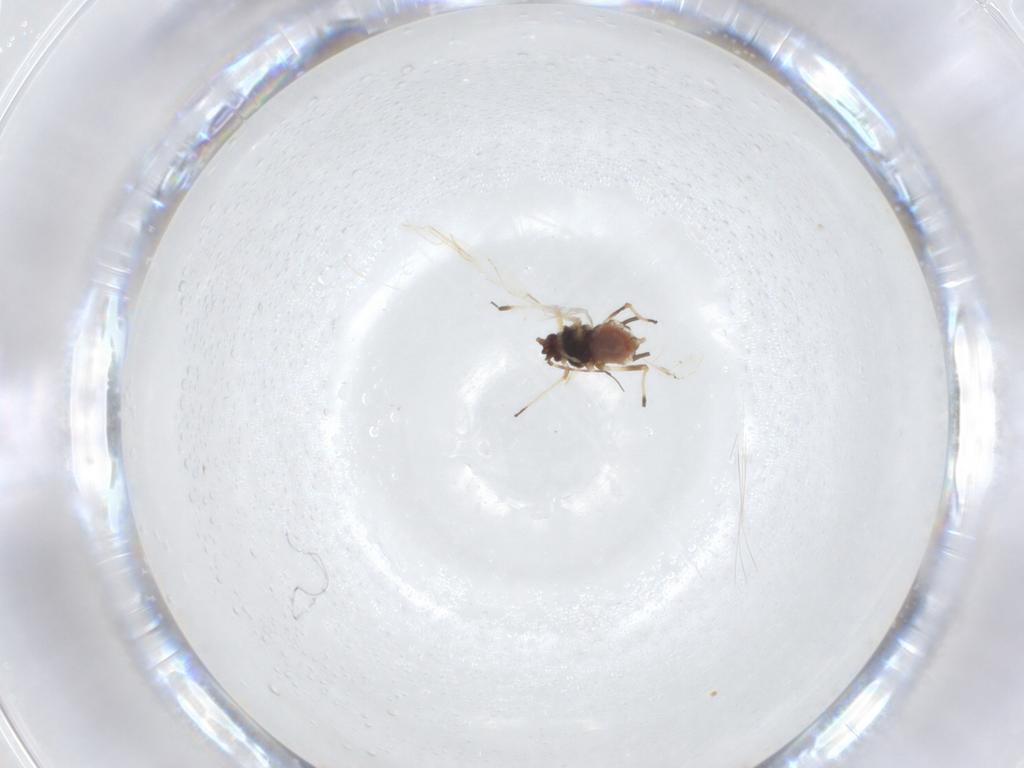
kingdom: Animalia
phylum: Arthropoda
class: Insecta
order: Hemiptera
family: Aphididae
